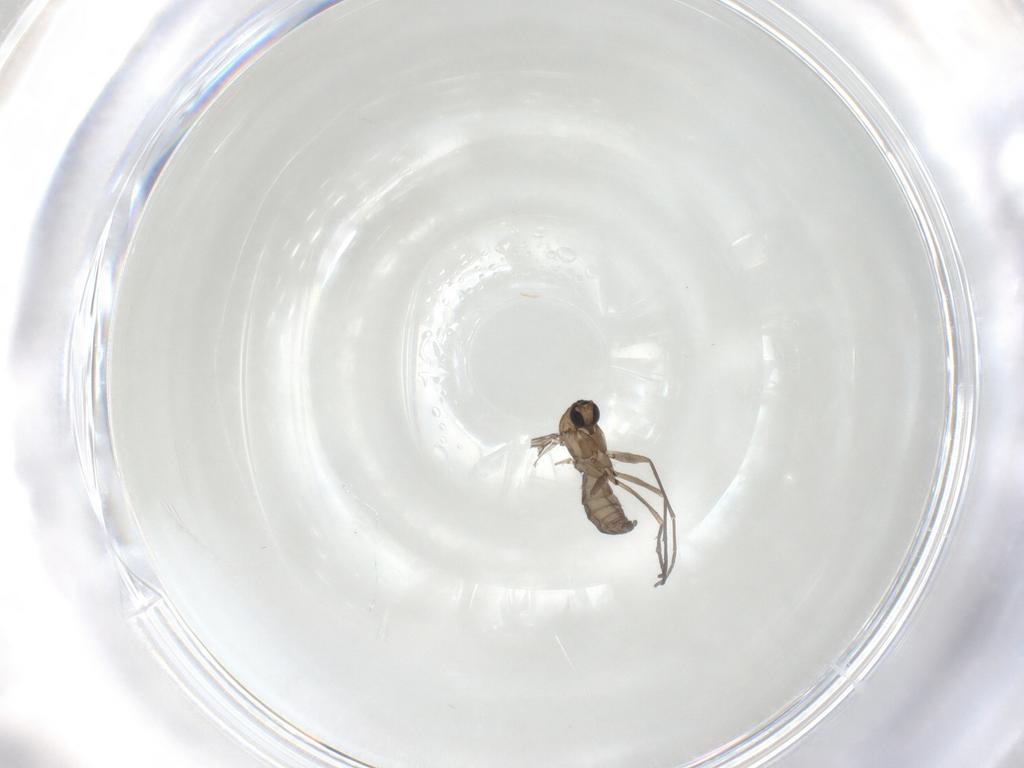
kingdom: Animalia
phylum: Arthropoda
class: Insecta
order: Diptera
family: Sciaridae
